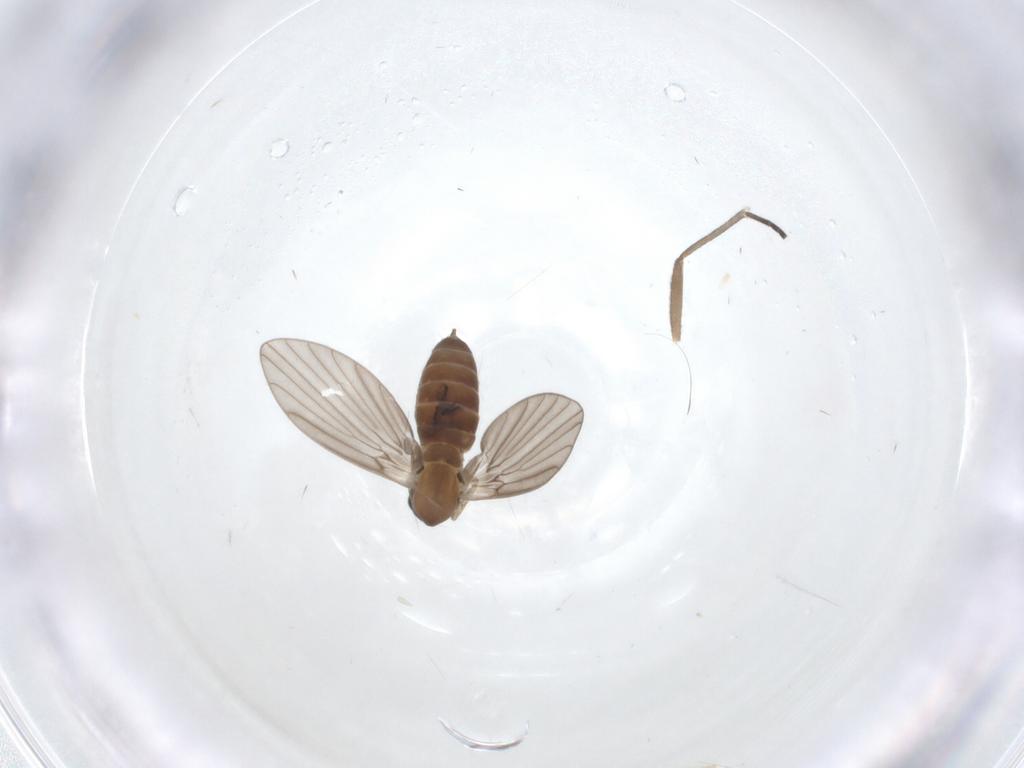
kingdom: Animalia
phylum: Arthropoda
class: Insecta
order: Diptera
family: Sciaridae
